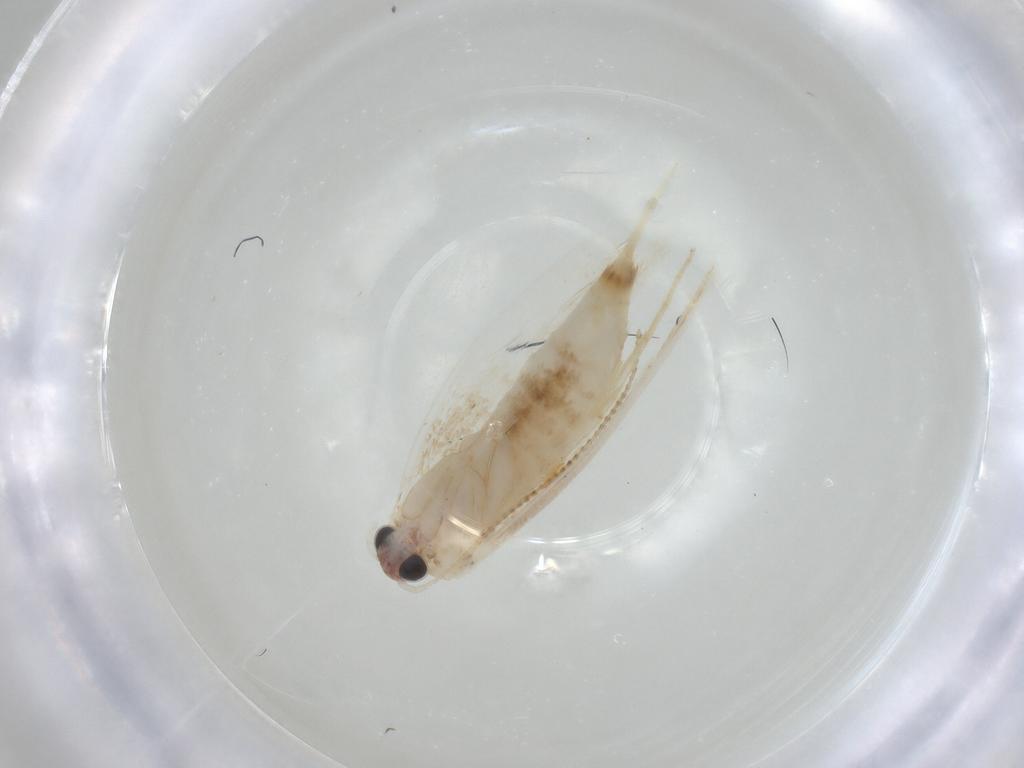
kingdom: Animalia
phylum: Arthropoda
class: Insecta
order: Lepidoptera
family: Nepticulidae
